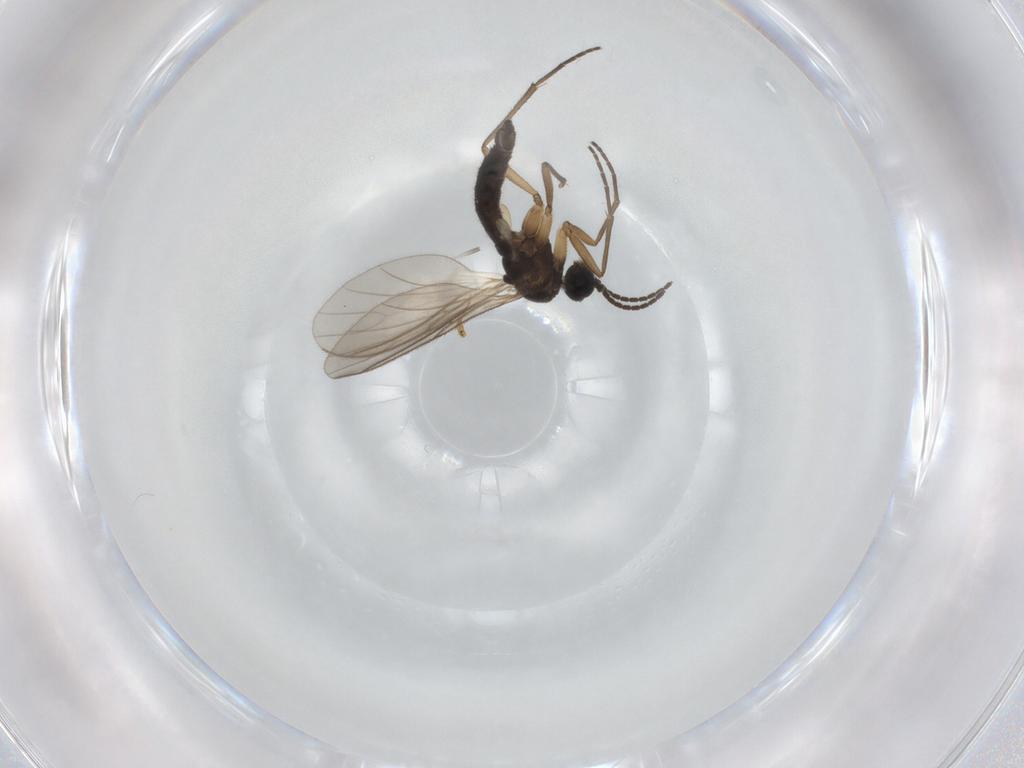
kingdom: Animalia
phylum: Arthropoda
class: Insecta
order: Diptera
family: Sciaridae
